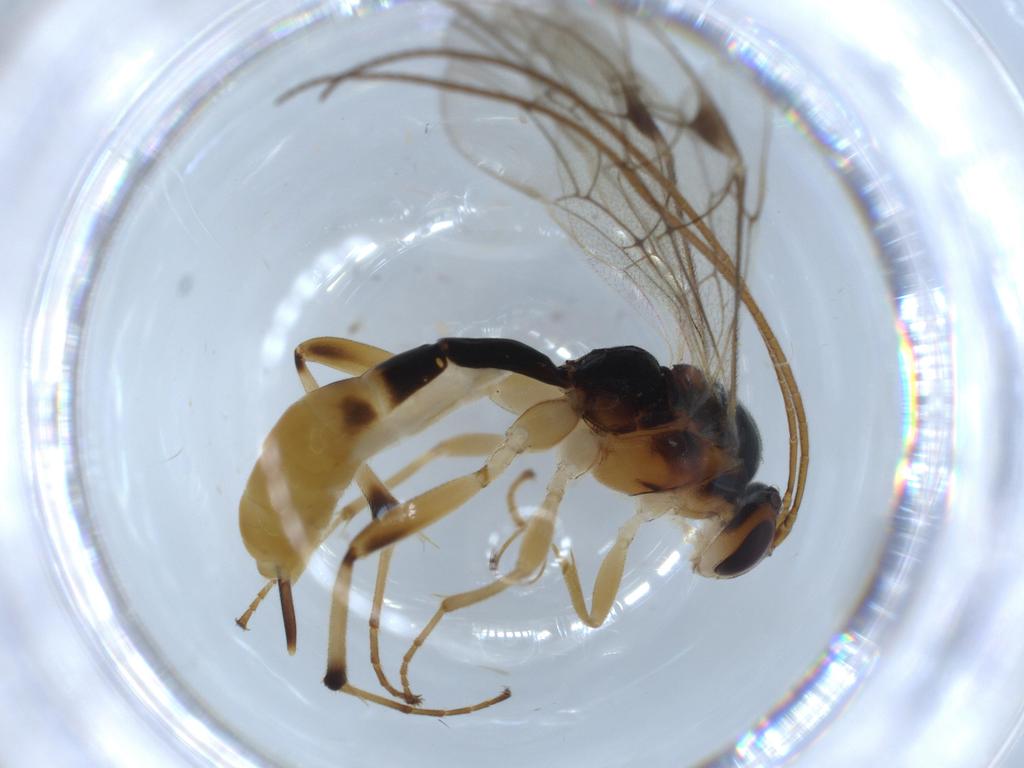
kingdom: Animalia
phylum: Arthropoda
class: Insecta
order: Hymenoptera
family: Ichneumonidae
